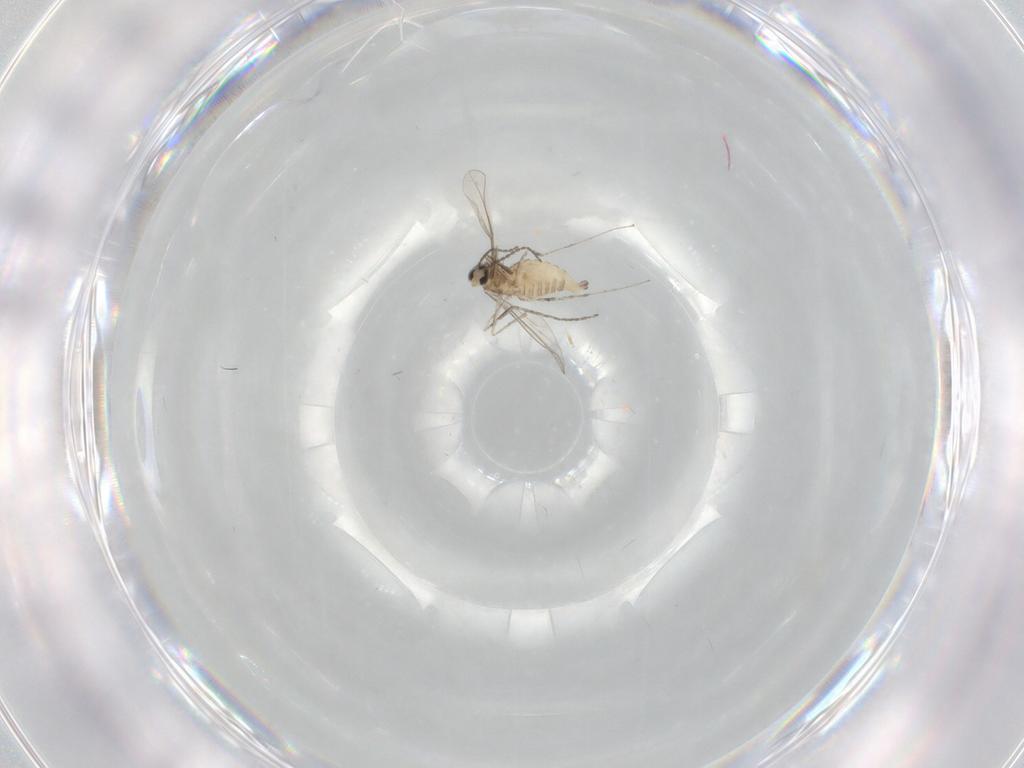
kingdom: Animalia
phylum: Arthropoda
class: Insecta
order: Diptera
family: Cecidomyiidae
